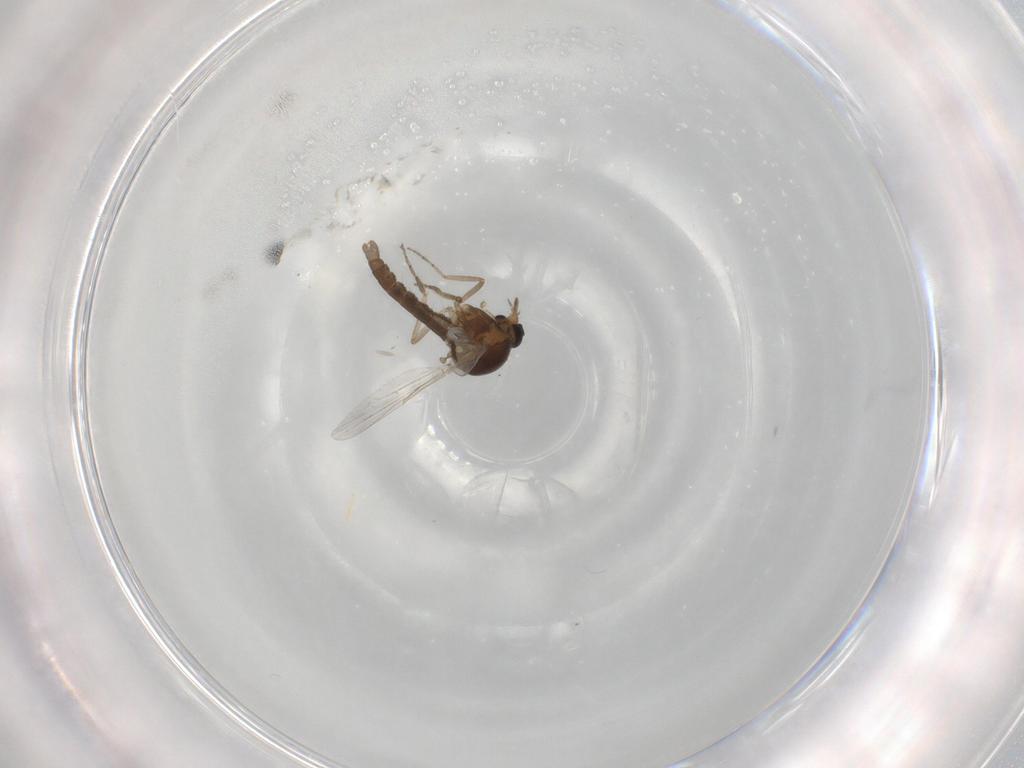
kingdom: Animalia
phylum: Arthropoda
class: Insecta
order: Diptera
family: Ceratopogonidae
